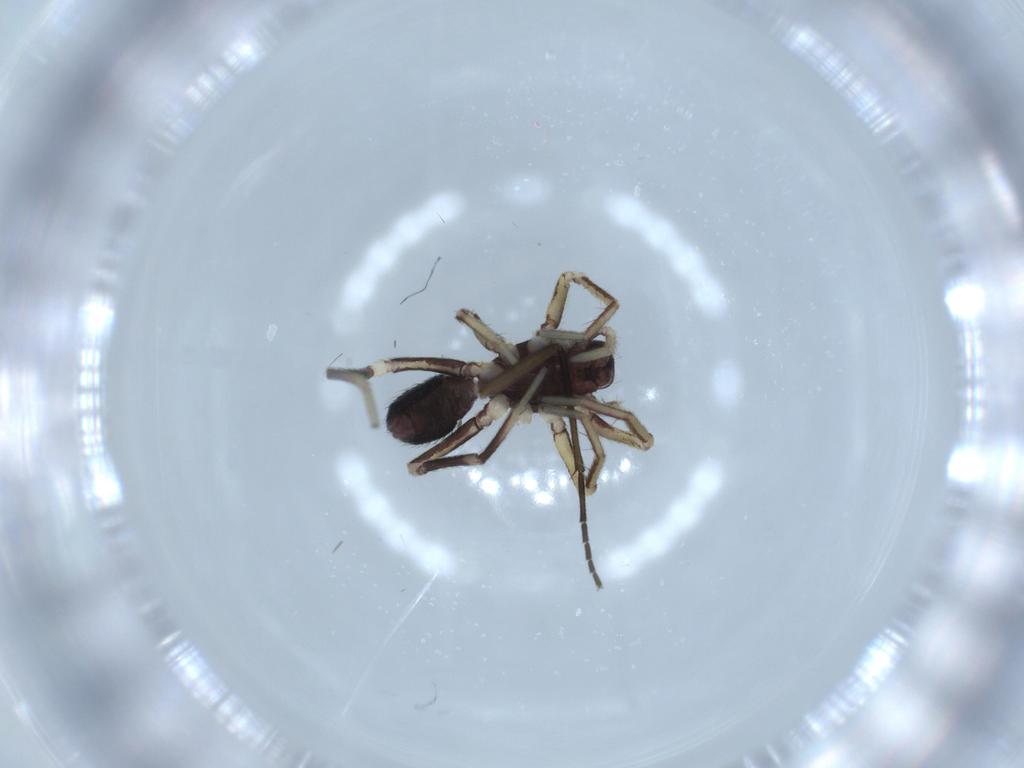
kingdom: Animalia
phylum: Arthropoda
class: Arachnida
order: Araneae
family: Corinnidae
